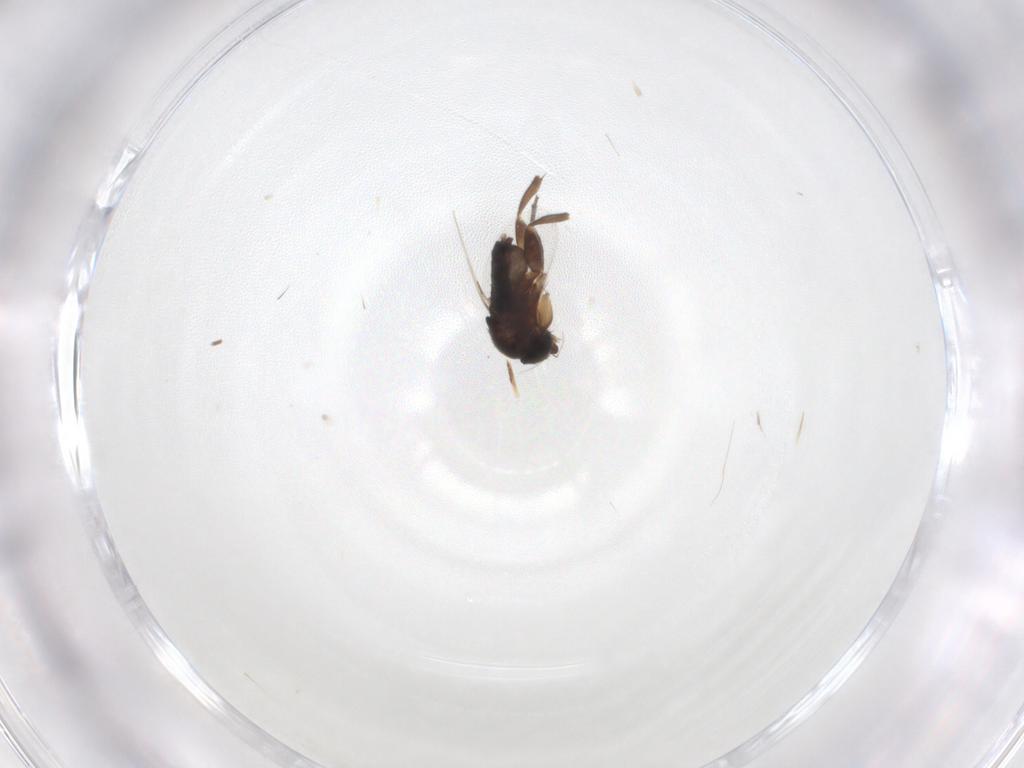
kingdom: Animalia
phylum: Arthropoda
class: Insecta
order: Diptera
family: Phoridae
